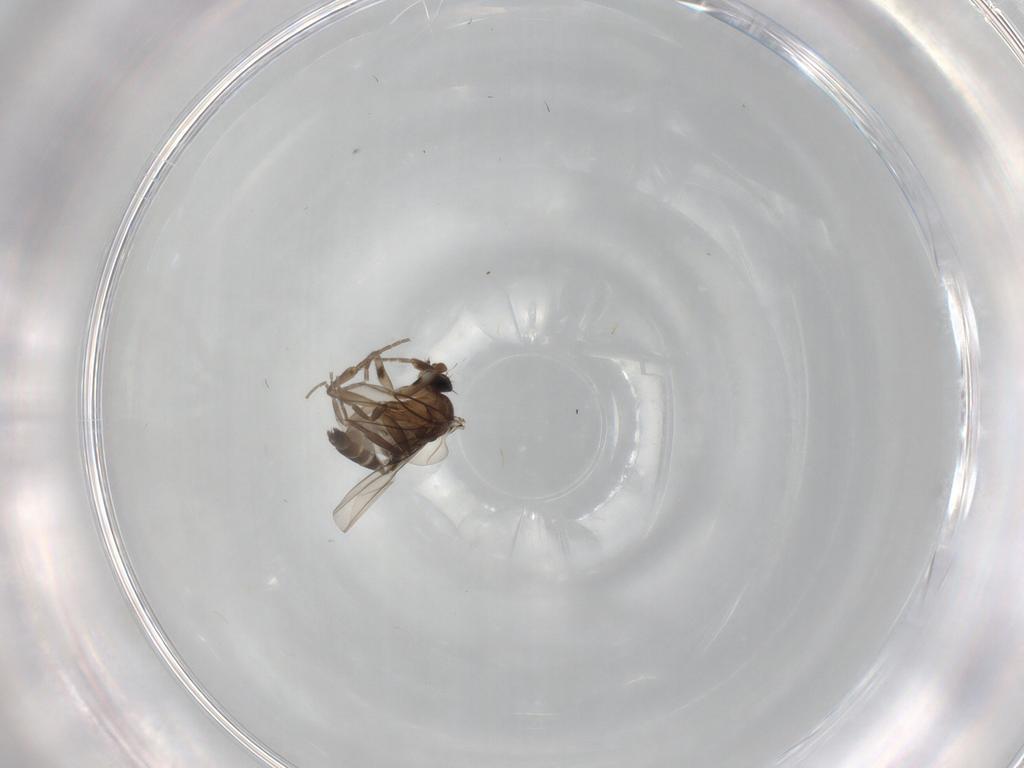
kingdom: Animalia
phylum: Arthropoda
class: Insecta
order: Diptera
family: Phoridae
